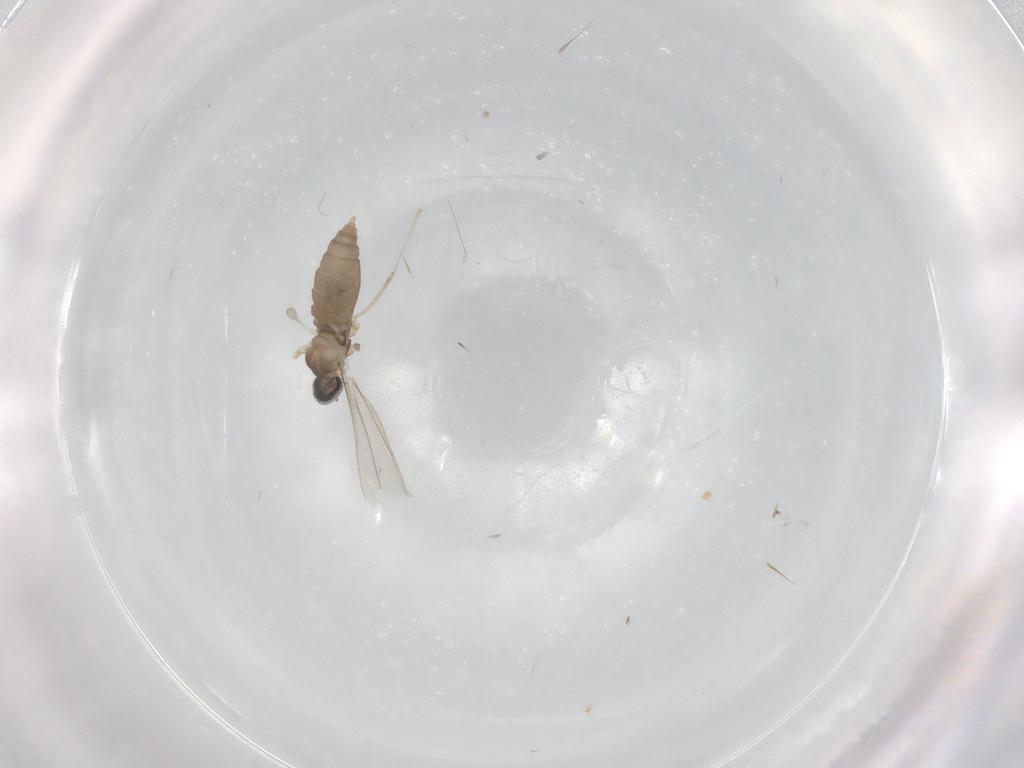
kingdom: Animalia
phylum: Arthropoda
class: Insecta
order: Diptera
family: Cecidomyiidae
